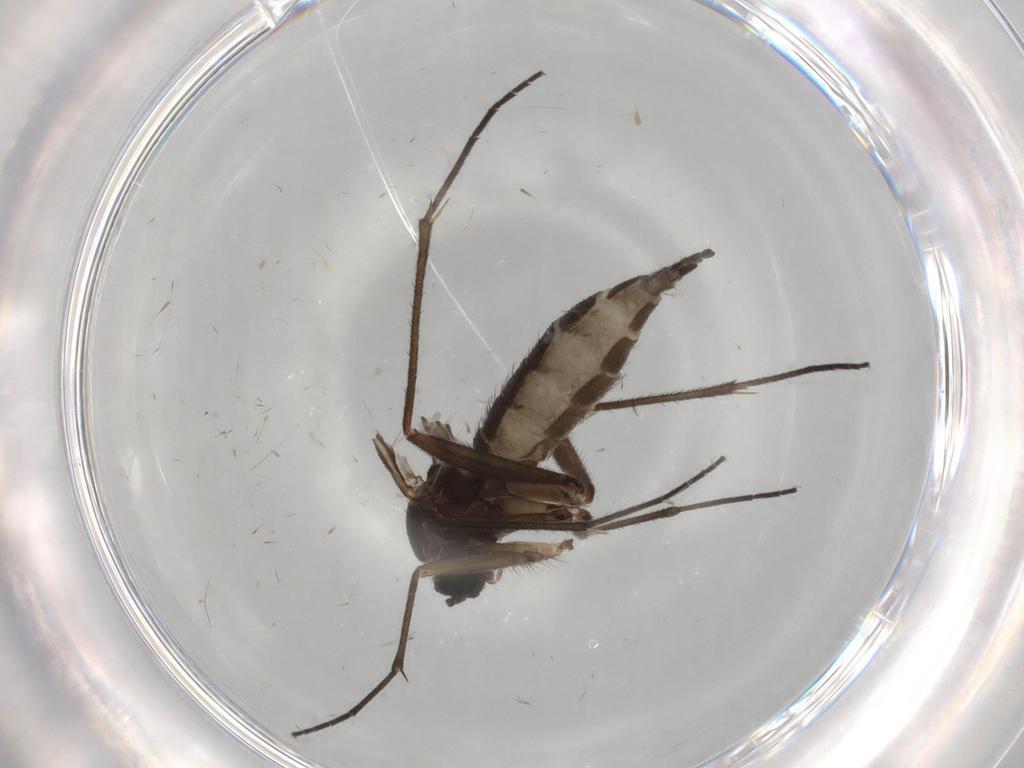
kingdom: Animalia
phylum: Arthropoda
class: Insecta
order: Diptera
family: Sciaridae
